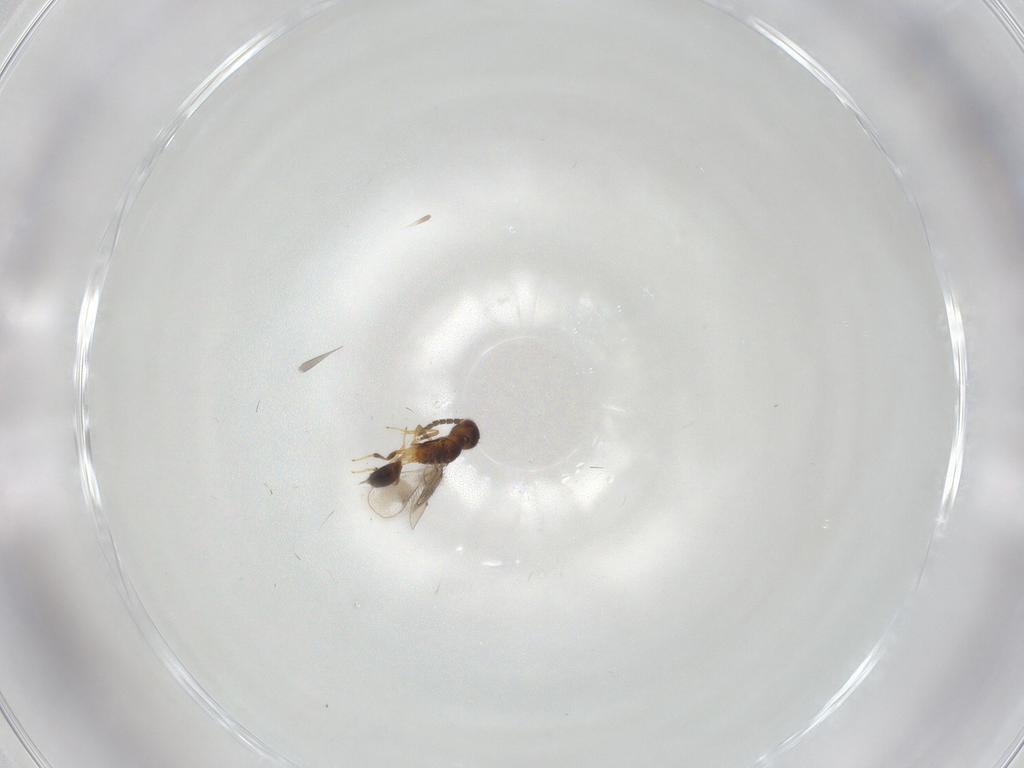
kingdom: Animalia
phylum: Arthropoda
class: Insecta
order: Hymenoptera
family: Pteromalidae
